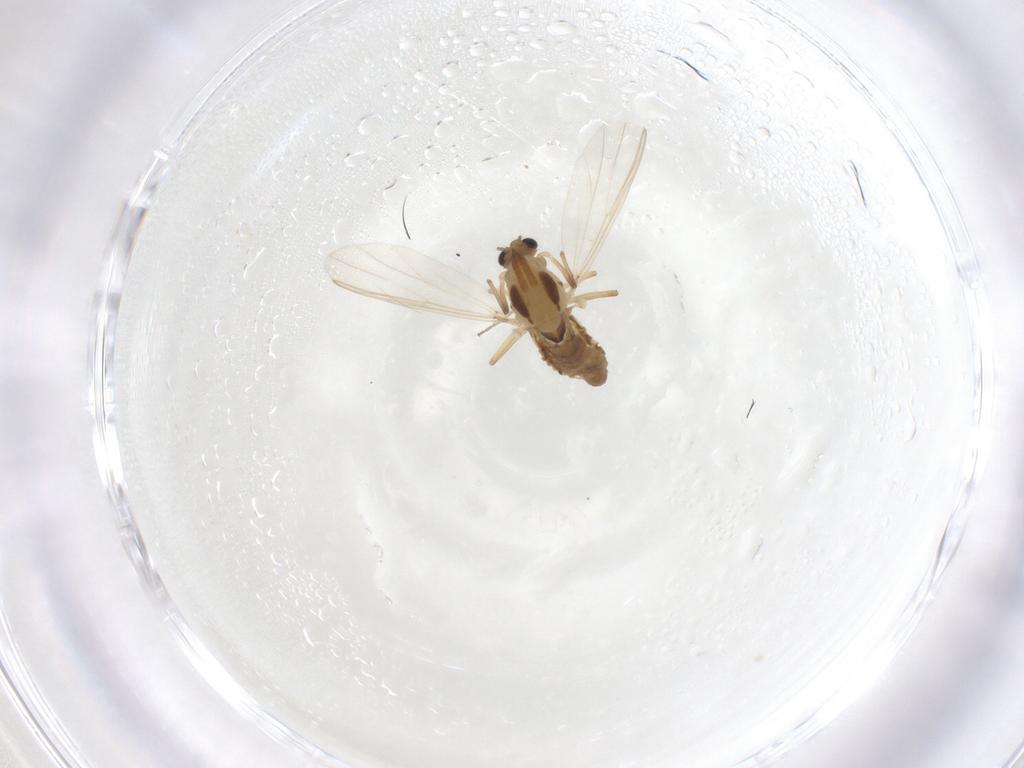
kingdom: Animalia
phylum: Arthropoda
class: Insecta
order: Diptera
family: Chironomidae
